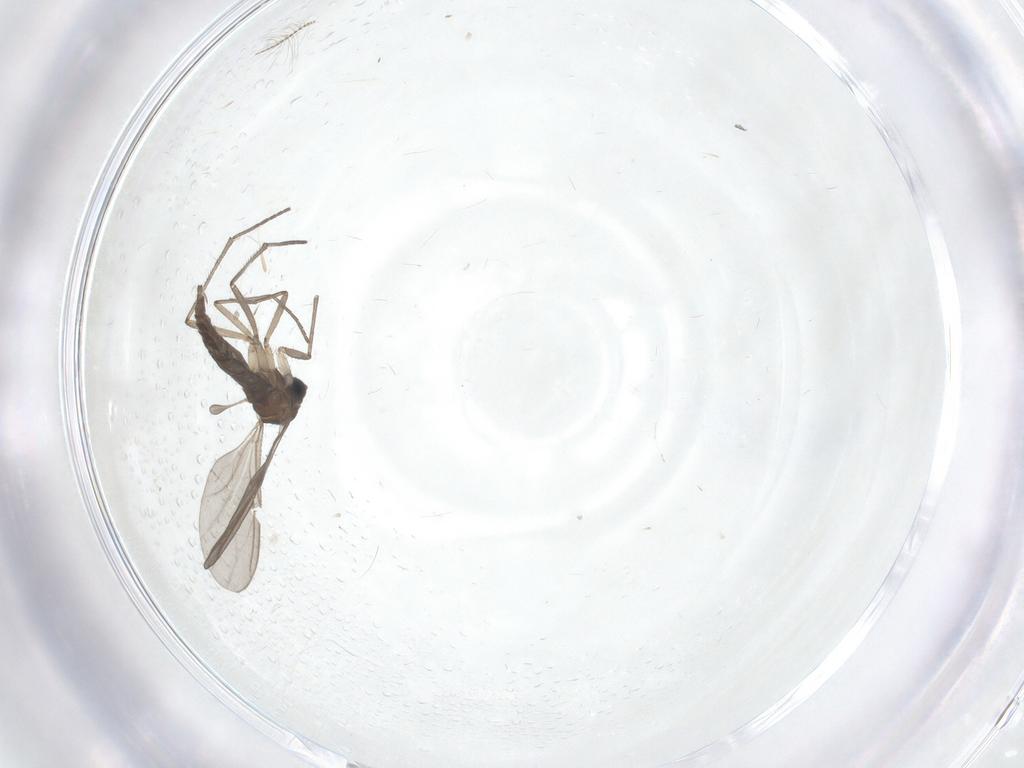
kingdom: Animalia
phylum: Arthropoda
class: Insecta
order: Diptera
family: Sciaridae
